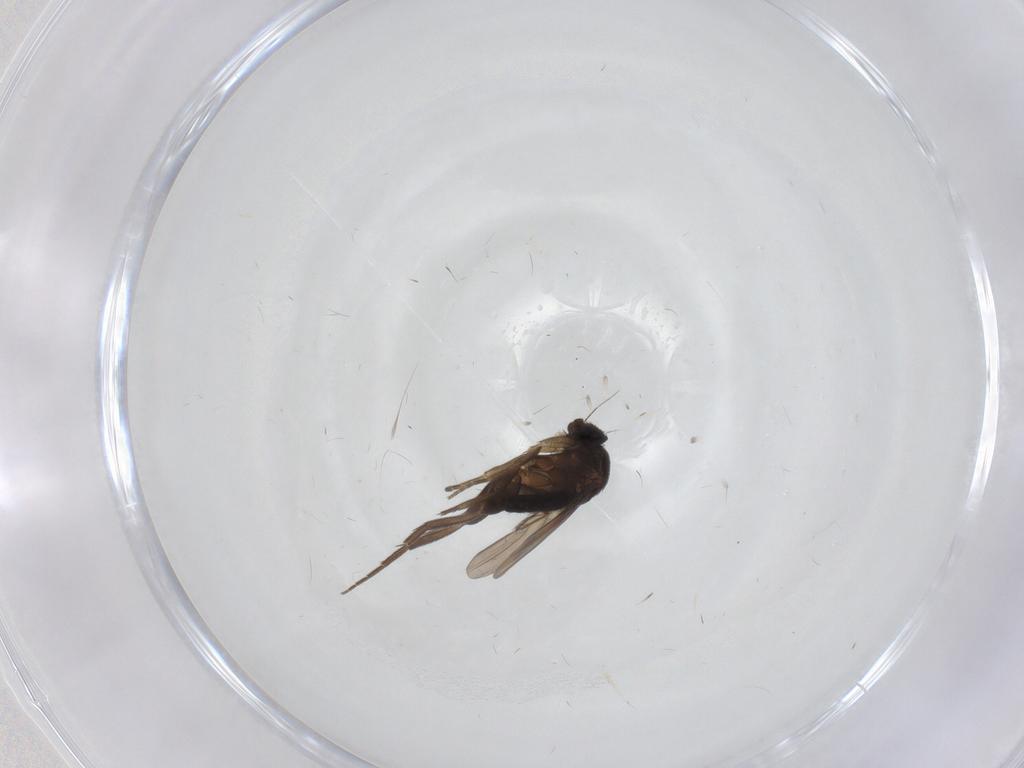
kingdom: Animalia
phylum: Arthropoda
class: Insecta
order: Diptera
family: Phoridae
